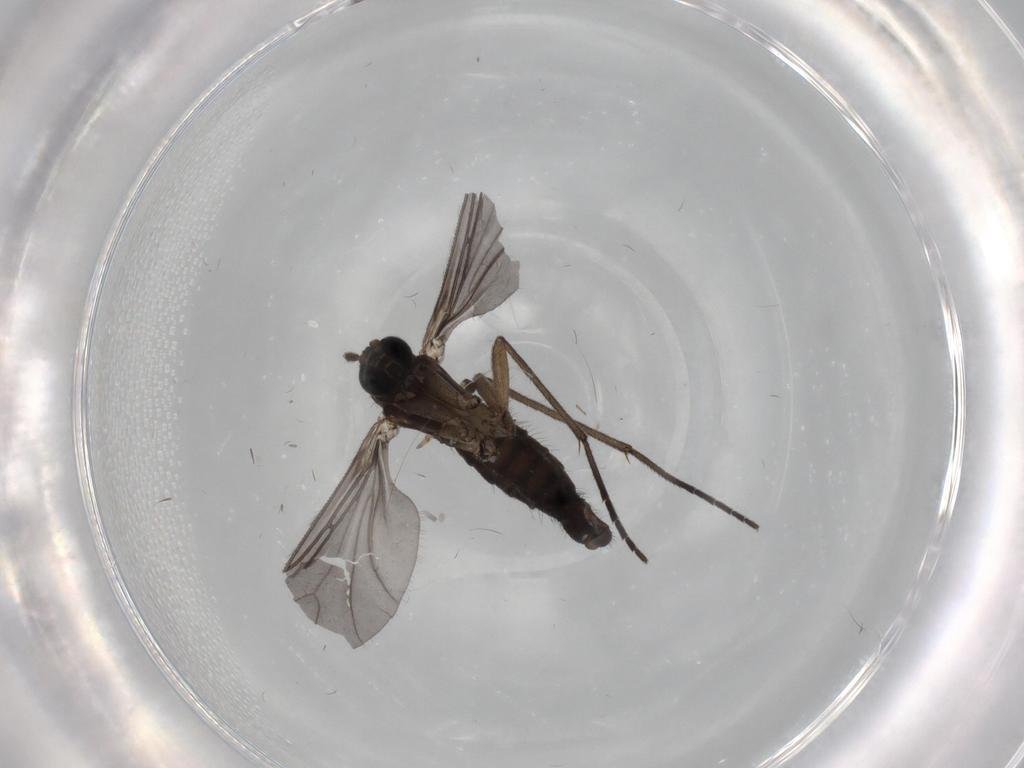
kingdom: Animalia
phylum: Arthropoda
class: Insecta
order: Diptera
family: Sciaridae
